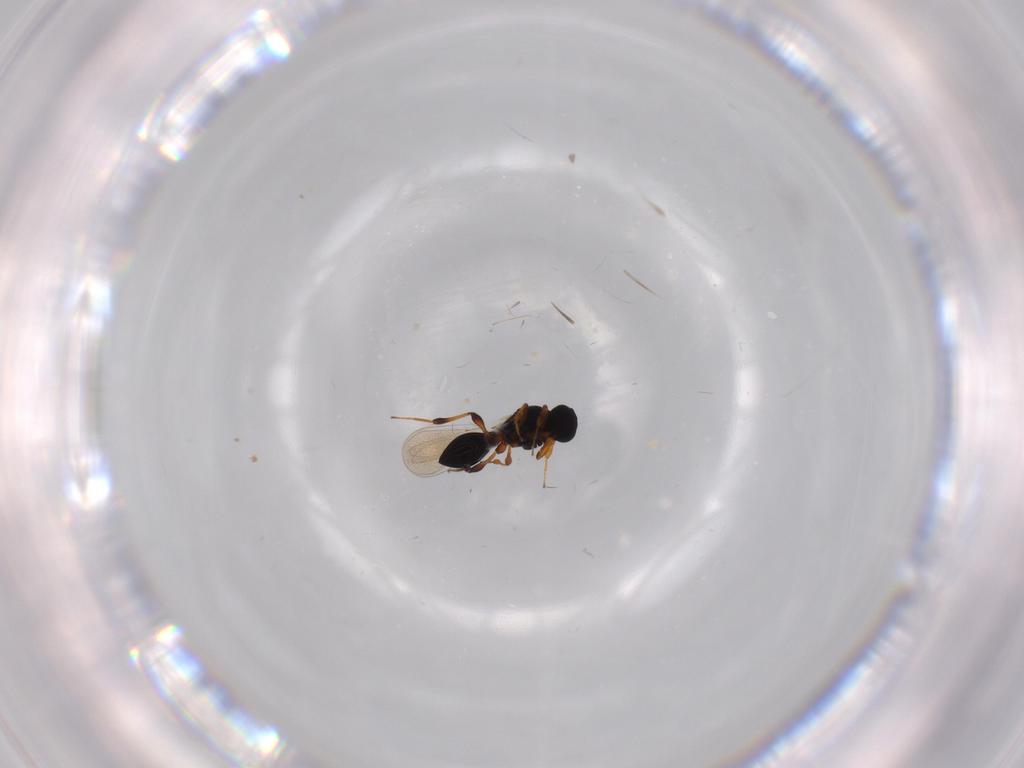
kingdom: Animalia
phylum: Arthropoda
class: Insecta
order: Hymenoptera
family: Platygastridae
